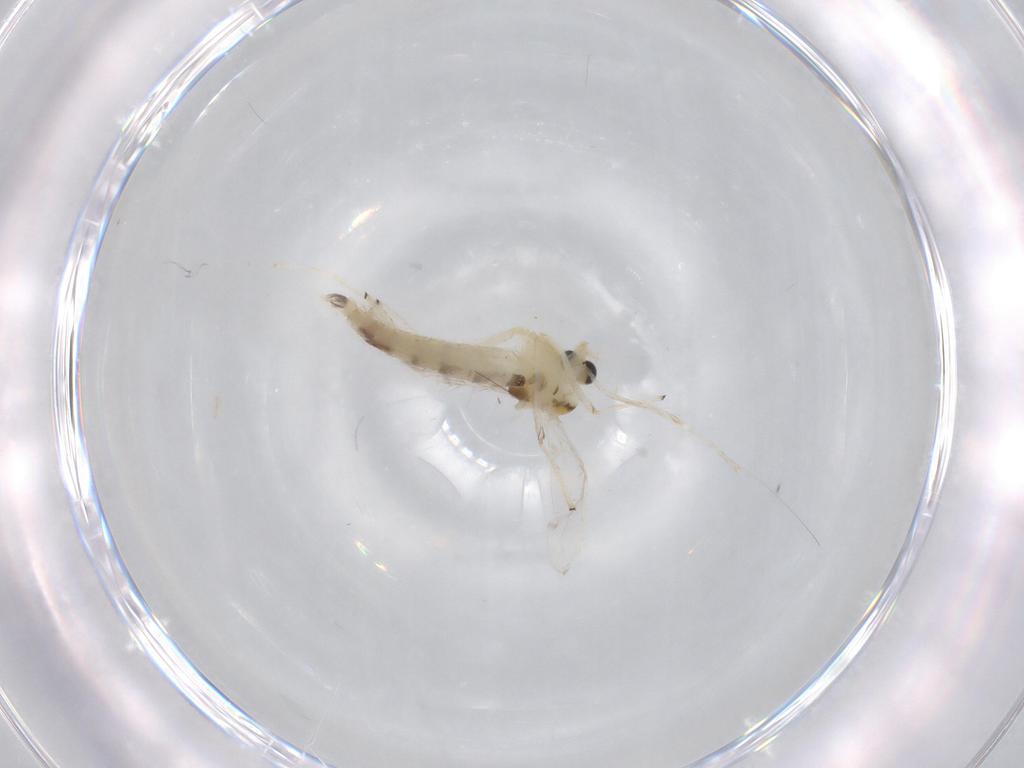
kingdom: Animalia
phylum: Arthropoda
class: Insecta
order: Diptera
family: Chironomidae
